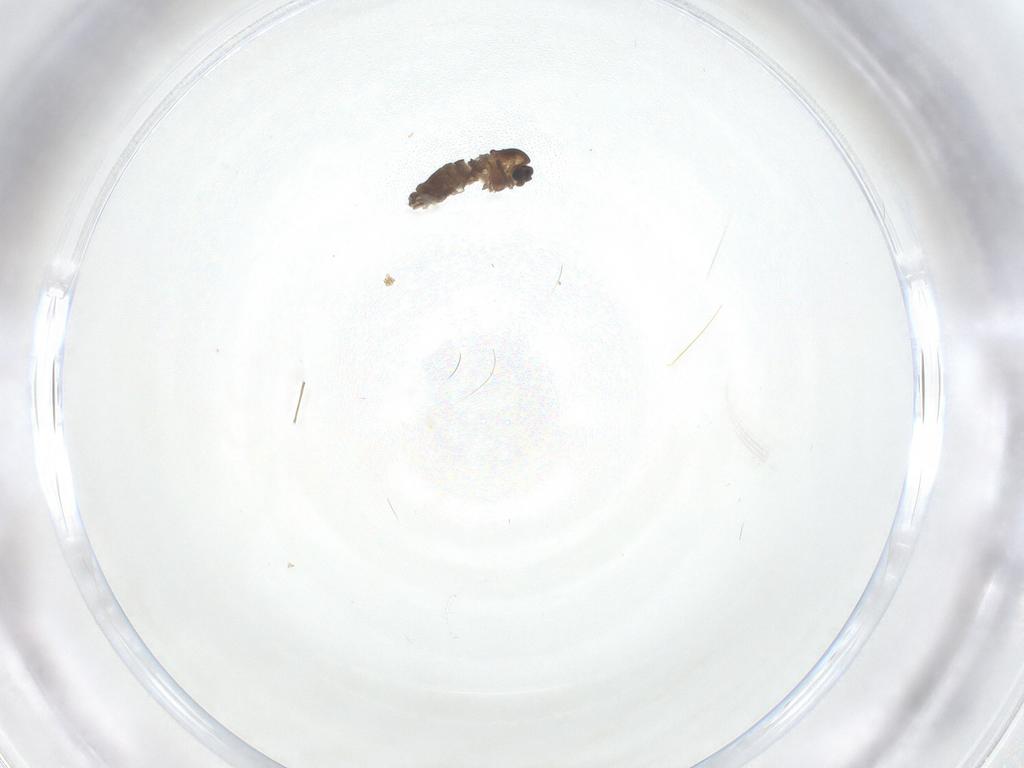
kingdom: Animalia
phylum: Arthropoda
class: Insecta
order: Diptera
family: Chironomidae
